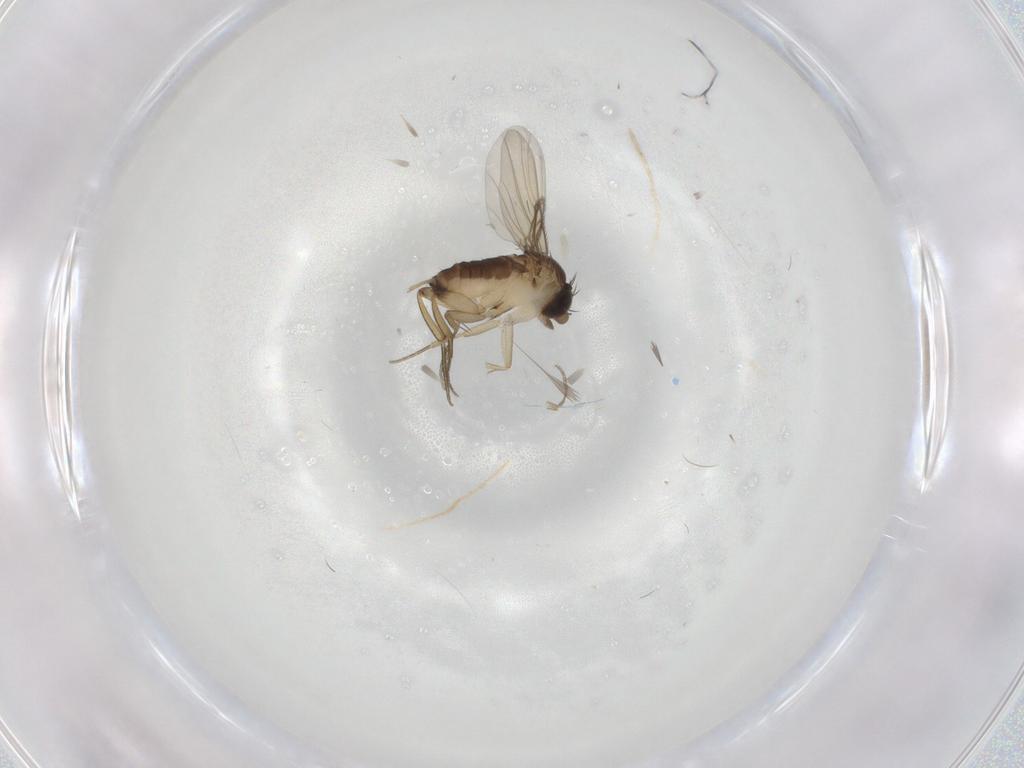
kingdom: Animalia
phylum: Arthropoda
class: Insecta
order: Diptera
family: Phoridae
